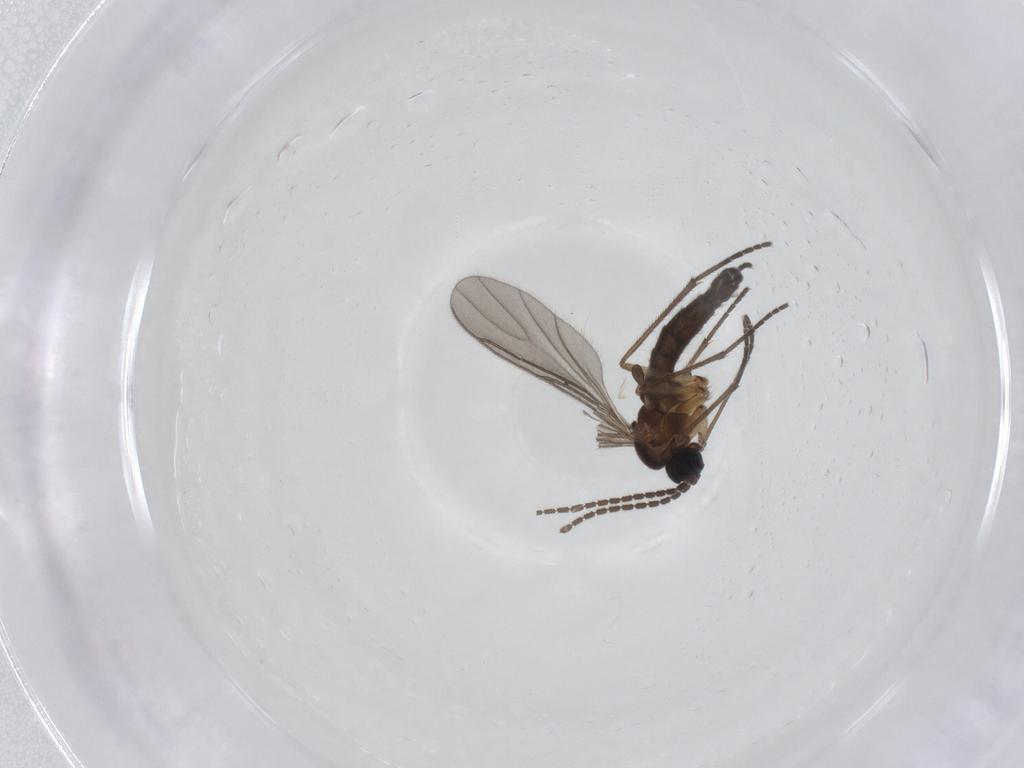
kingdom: Animalia
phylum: Arthropoda
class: Insecta
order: Diptera
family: Sciaridae
